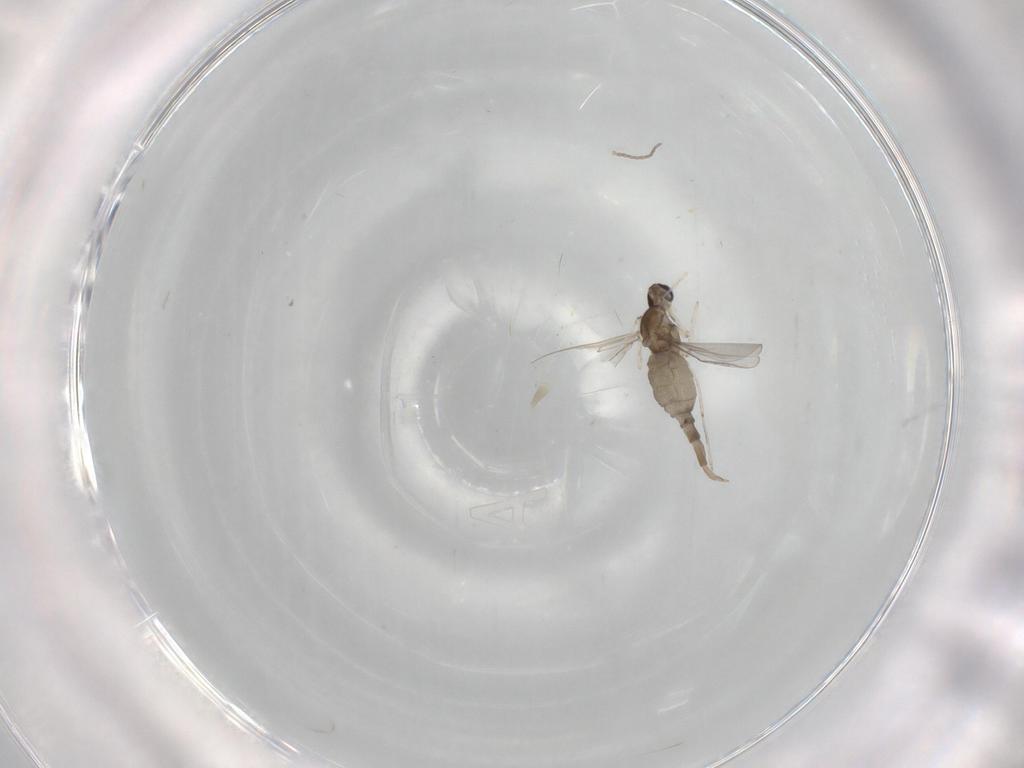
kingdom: Animalia
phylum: Arthropoda
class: Insecta
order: Diptera
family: Cecidomyiidae
